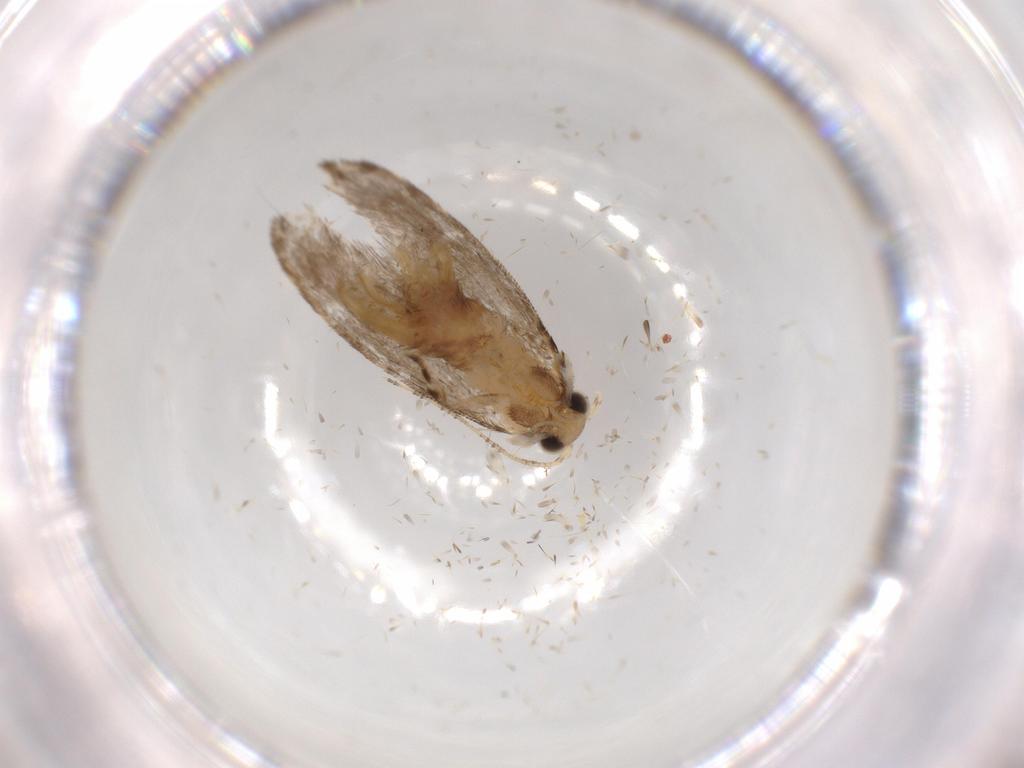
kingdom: Animalia
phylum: Arthropoda
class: Insecta
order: Lepidoptera
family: Tineidae
